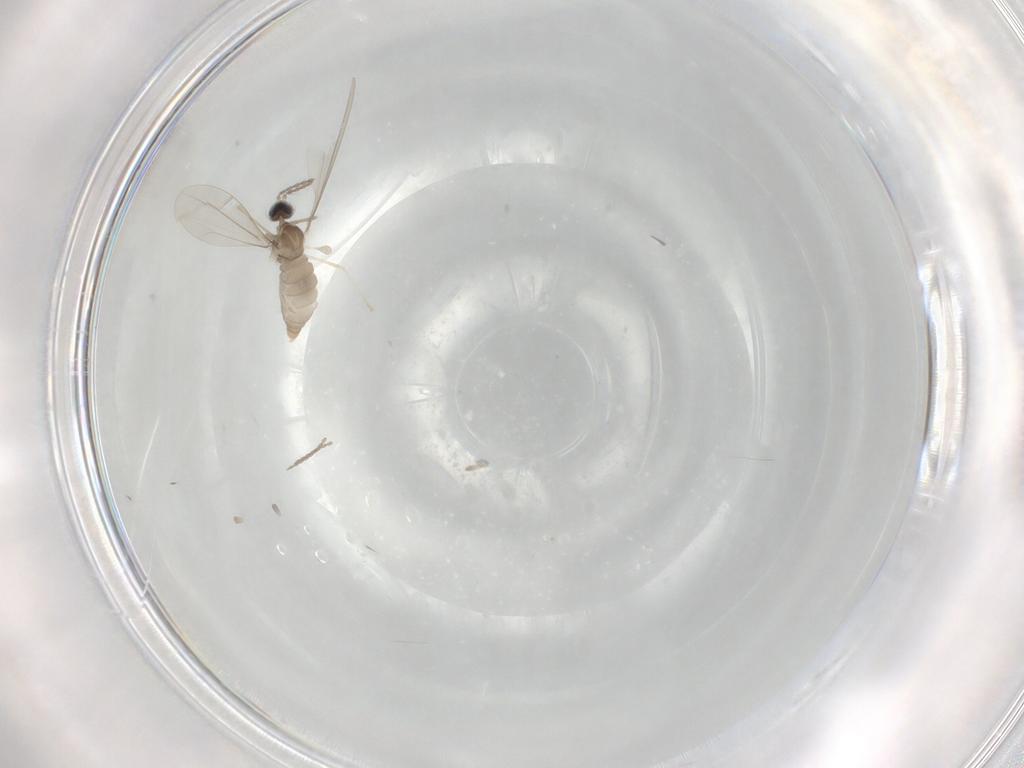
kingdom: Animalia
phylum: Arthropoda
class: Insecta
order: Diptera
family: Cecidomyiidae
